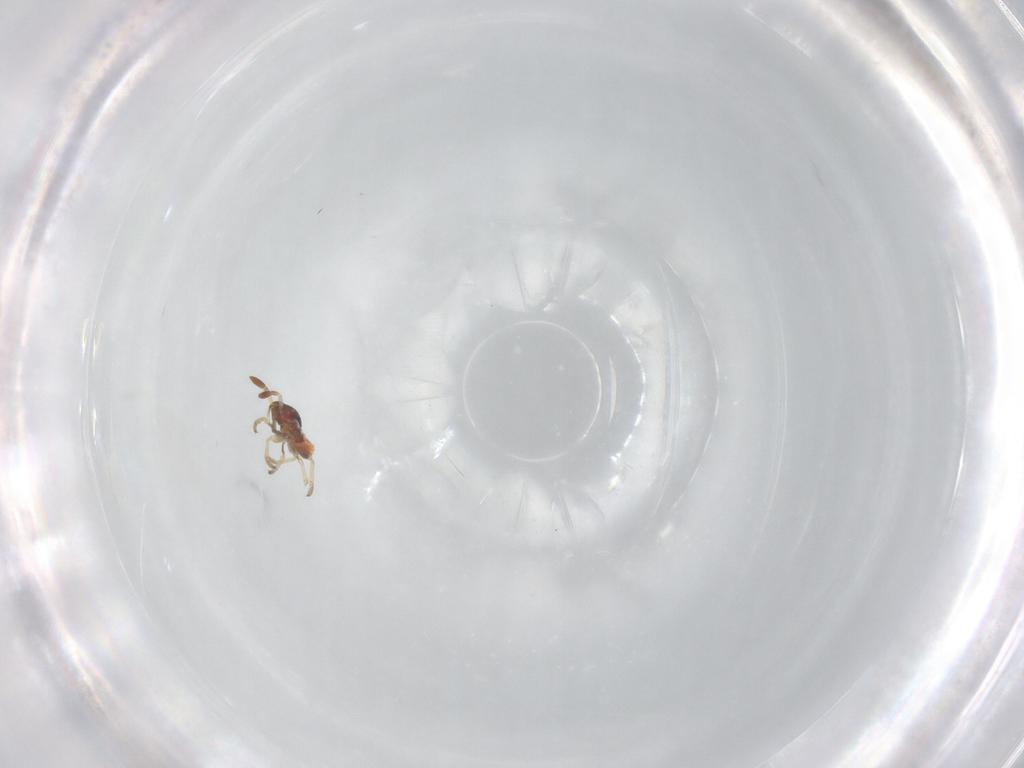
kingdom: Animalia
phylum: Arthropoda
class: Insecta
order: Hemiptera
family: Cicadellidae
